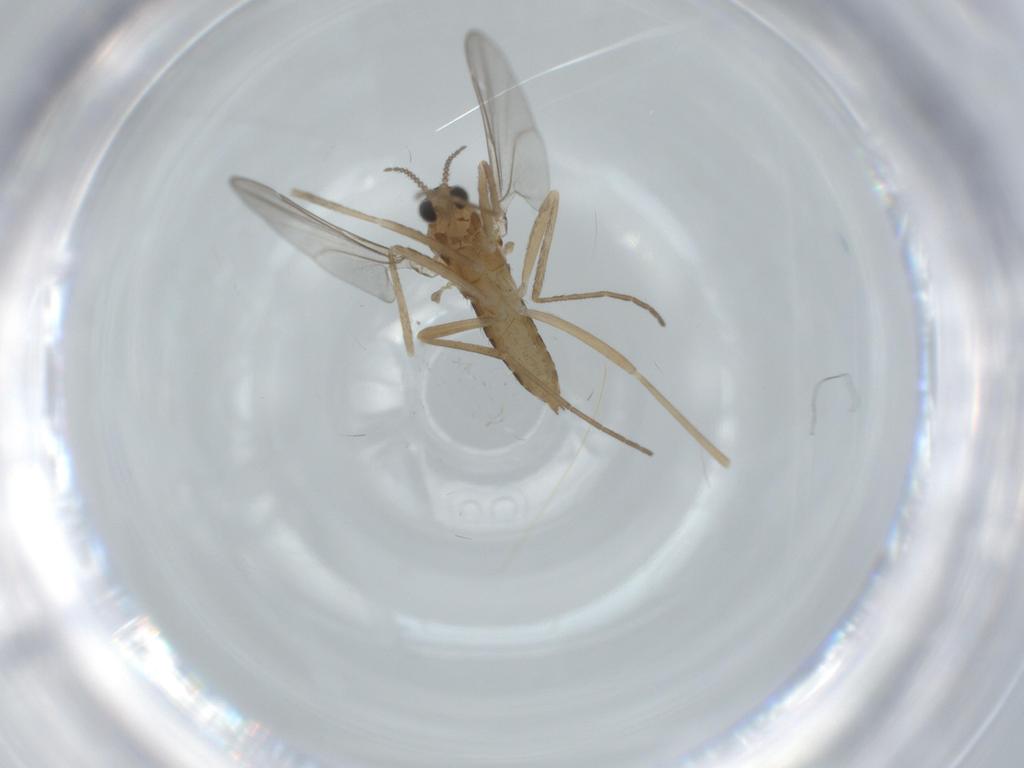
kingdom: Animalia
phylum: Arthropoda
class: Insecta
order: Diptera
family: Cecidomyiidae
